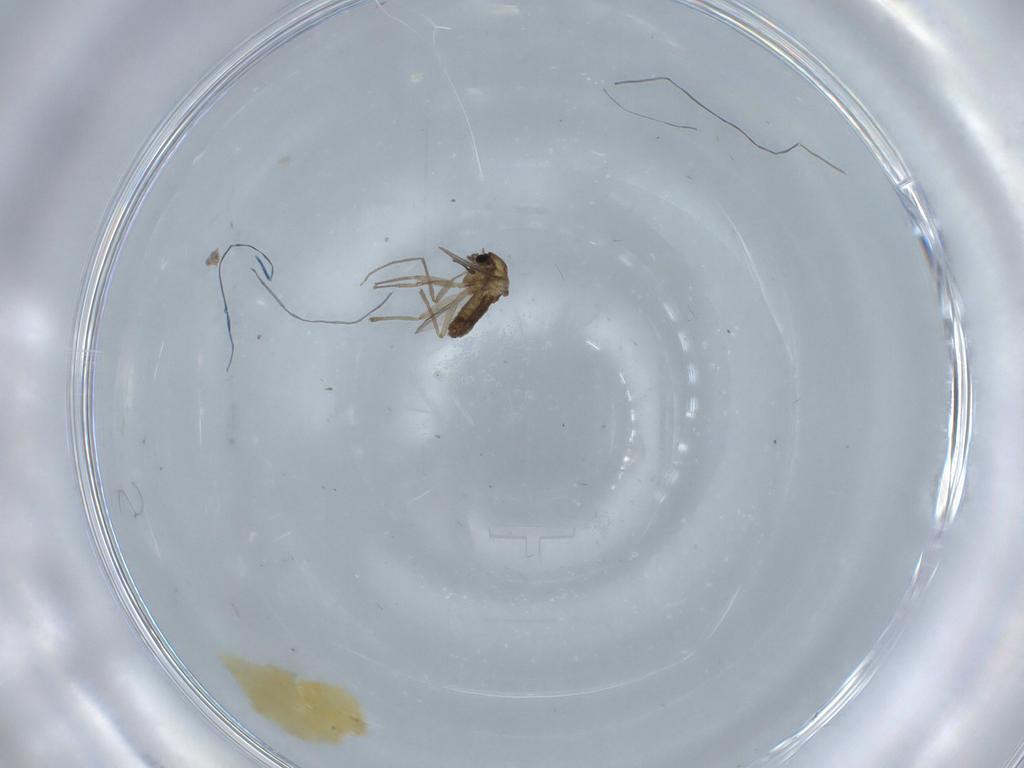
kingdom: Animalia
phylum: Arthropoda
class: Insecta
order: Diptera
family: Chironomidae
